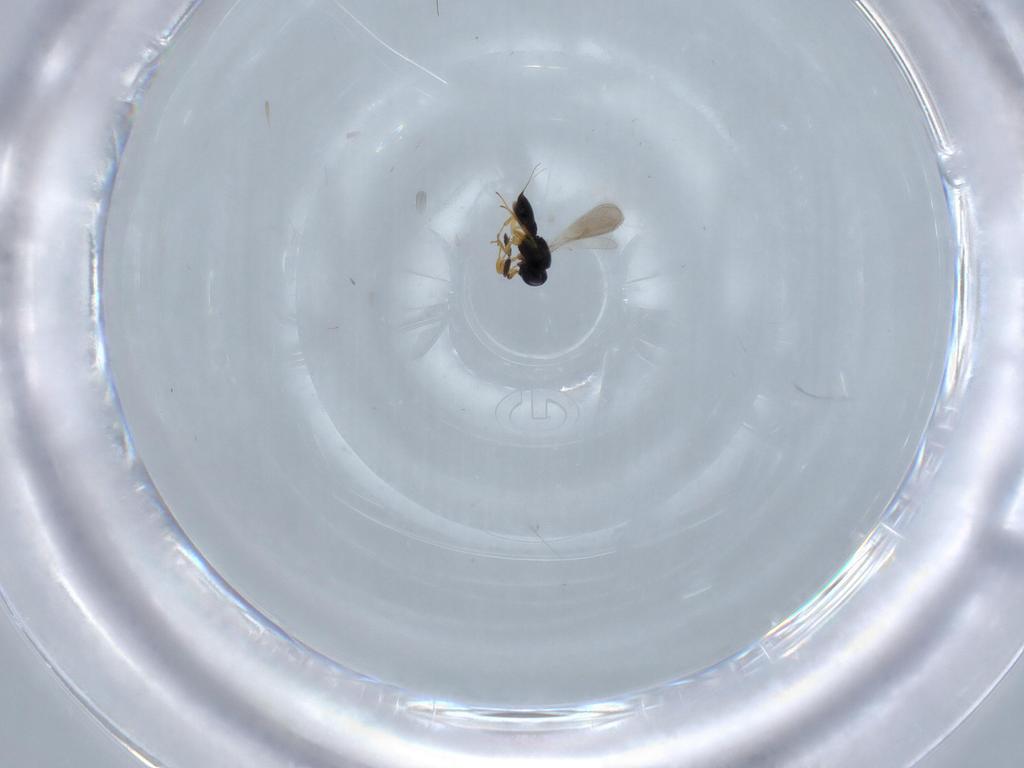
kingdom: Animalia
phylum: Arthropoda
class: Insecta
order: Hymenoptera
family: Scelionidae
